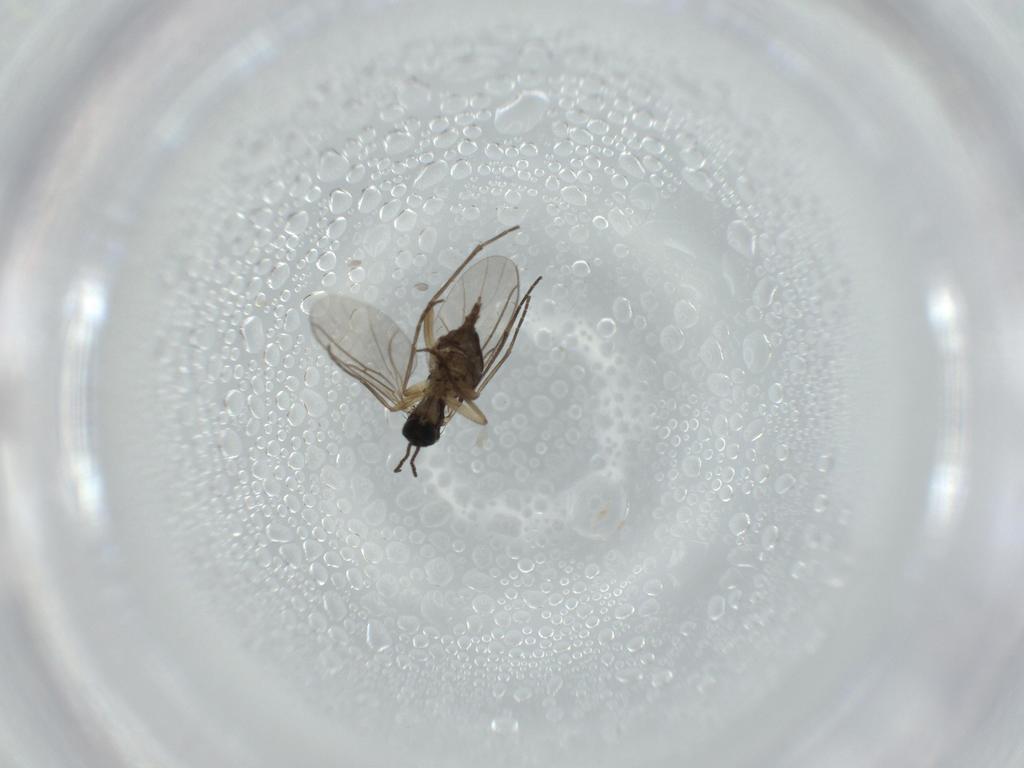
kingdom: Animalia
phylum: Arthropoda
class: Insecta
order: Diptera
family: Sciaridae
